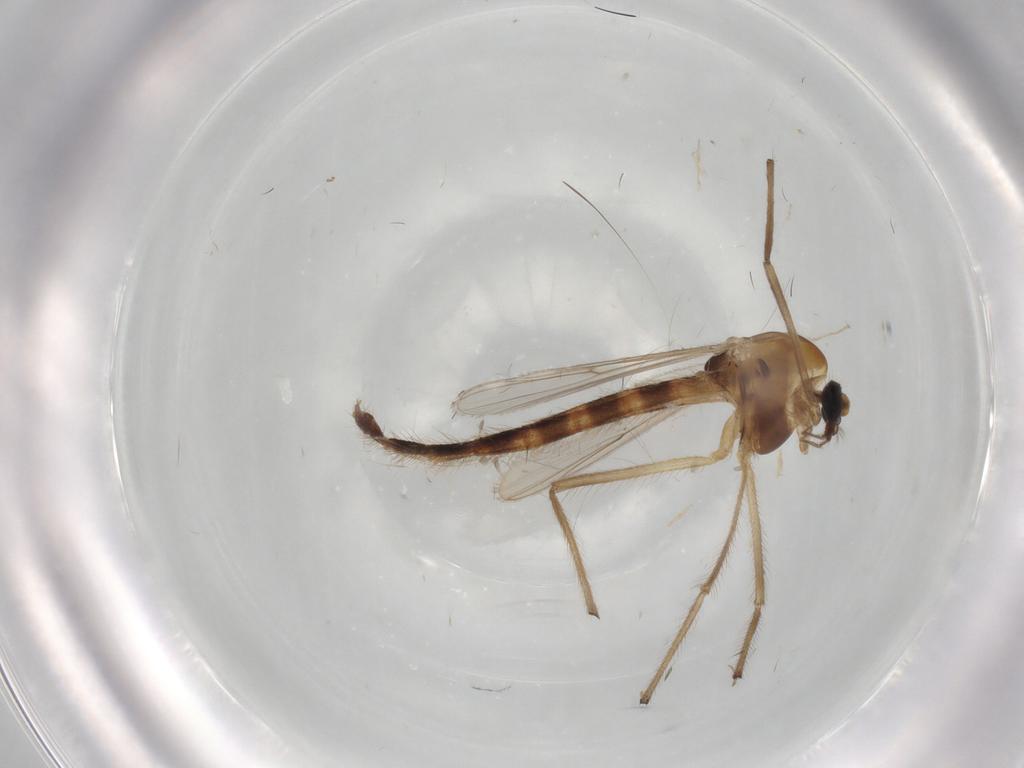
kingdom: Animalia
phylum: Arthropoda
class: Insecta
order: Diptera
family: Chironomidae
